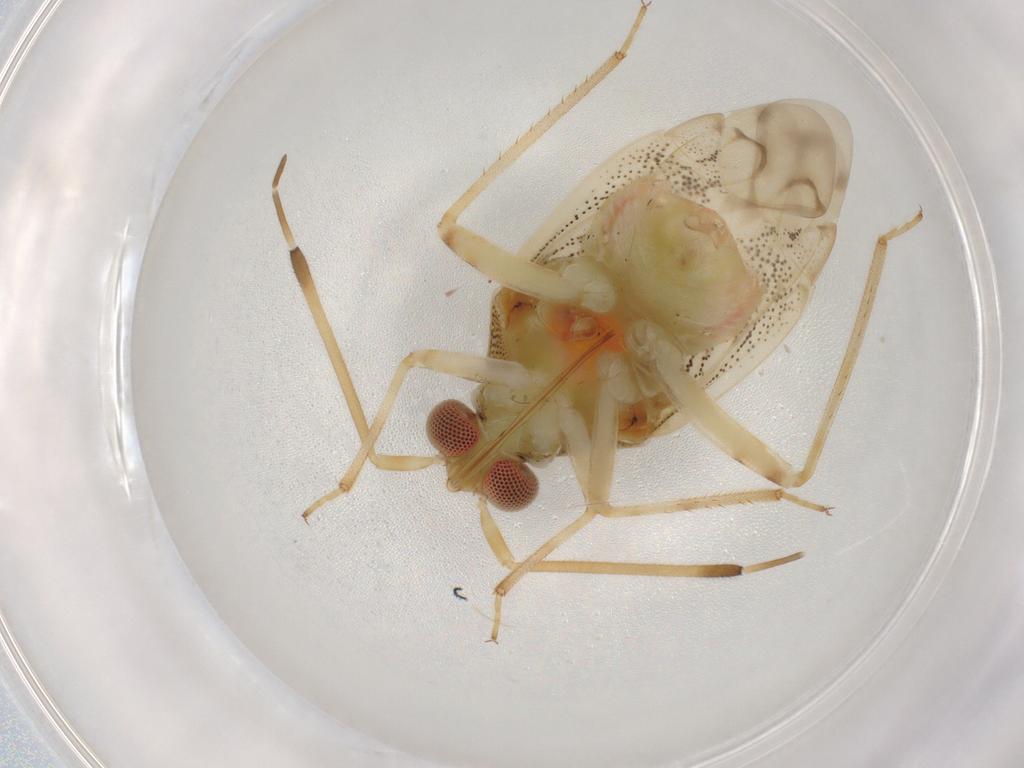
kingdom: Animalia
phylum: Arthropoda
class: Insecta
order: Hemiptera
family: Miridae
